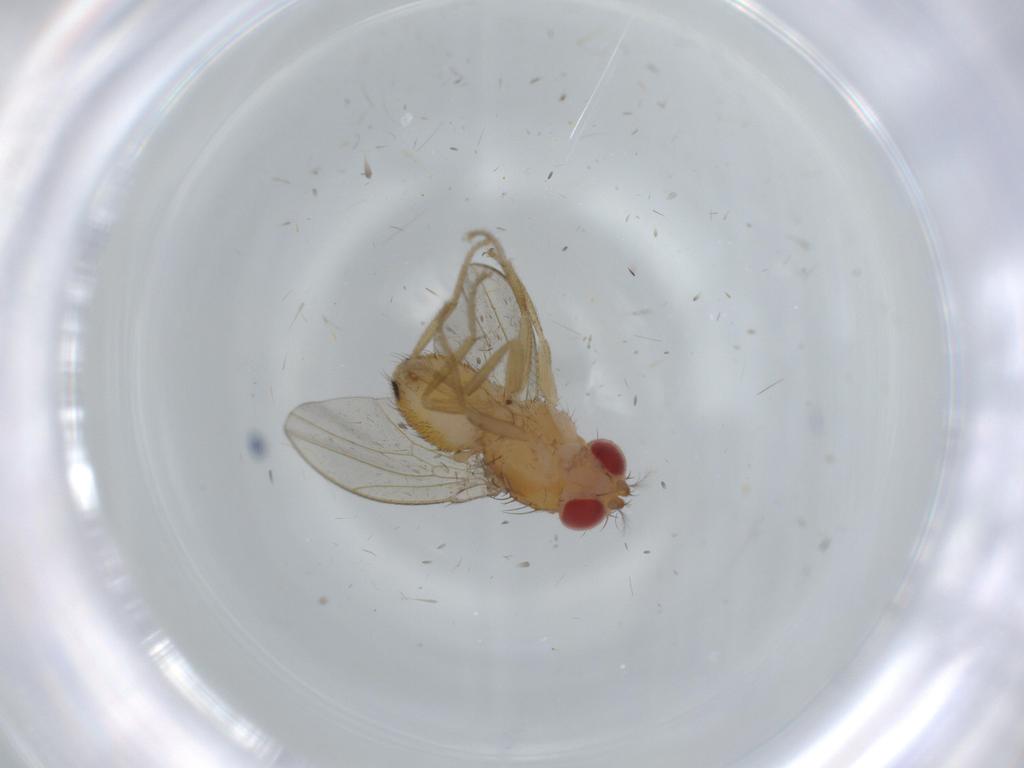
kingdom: Animalia
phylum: Arthropoda
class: Insecta
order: Diptera
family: Drosophilidae
